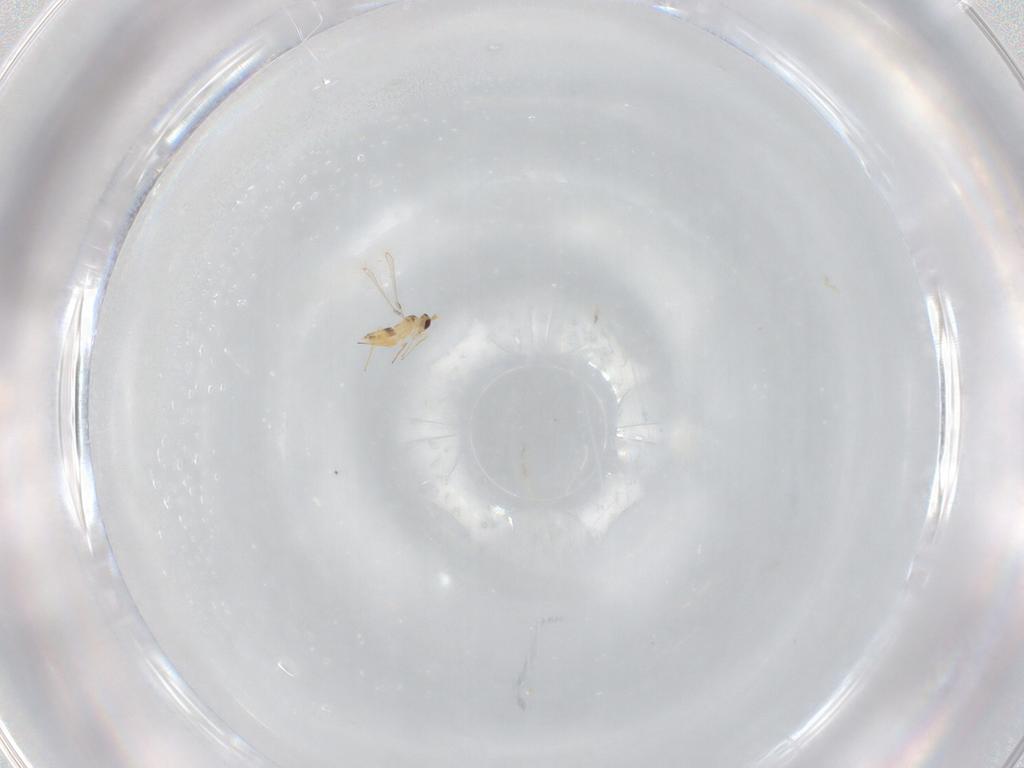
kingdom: Animalia
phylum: Arthropoda
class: Insecta
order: Hymenoptera
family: Mymaridae
